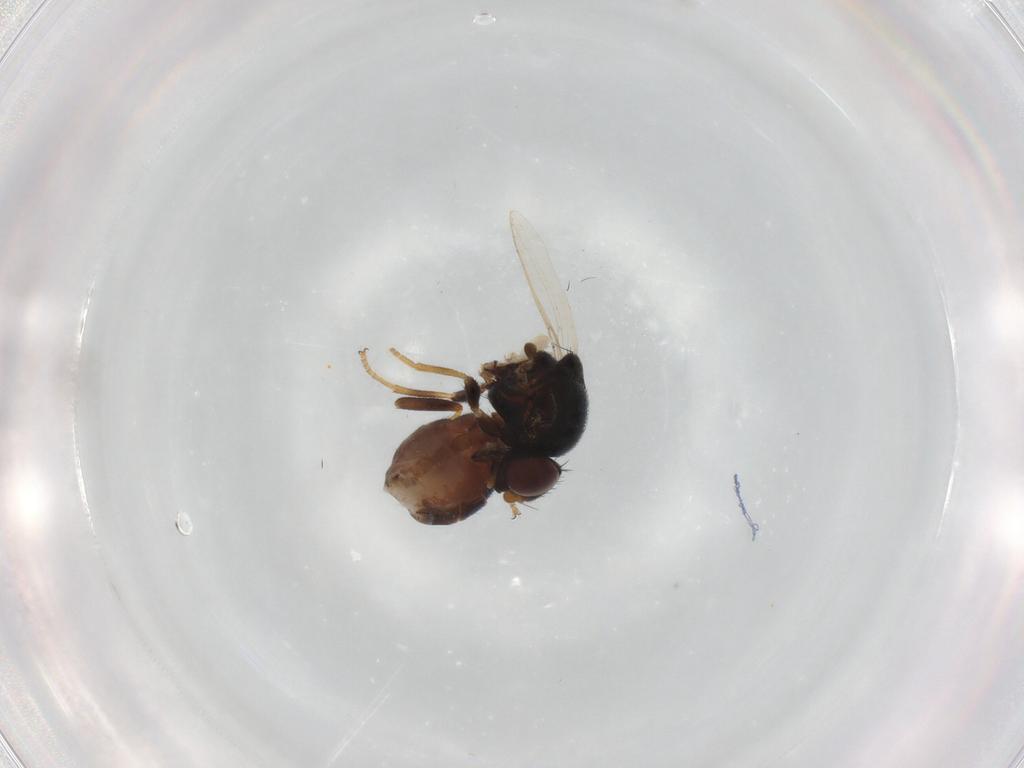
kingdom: Animalia
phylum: Arthropoda
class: Insecta
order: Diptera
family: Chloropidae
